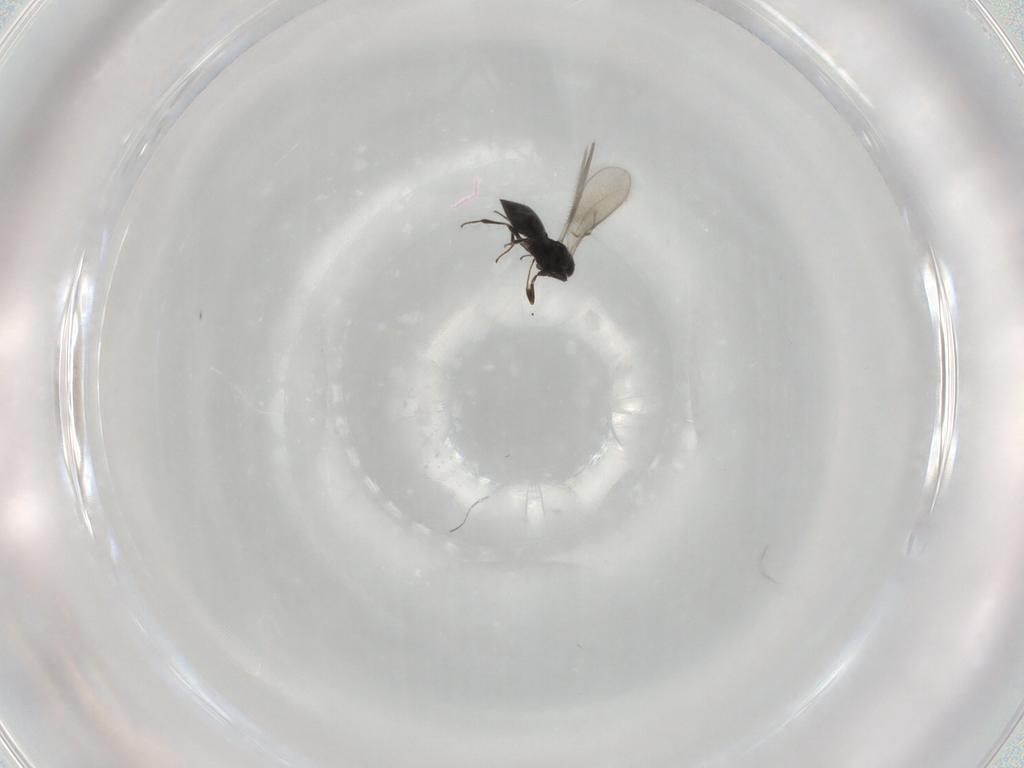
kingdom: Animalia
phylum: Arthropoda
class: Insecta
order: Hymenoptera
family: Scelionidae
